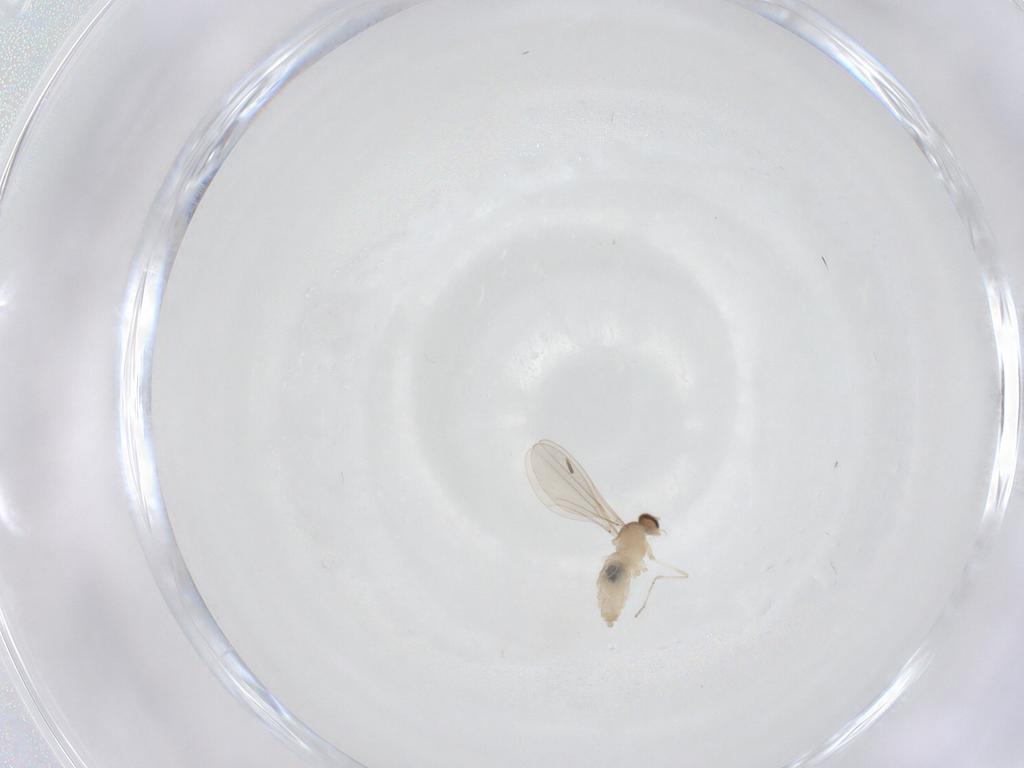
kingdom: Animalia
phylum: Arthropoda
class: Insecta
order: Diptera
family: Cecidomyiidae
